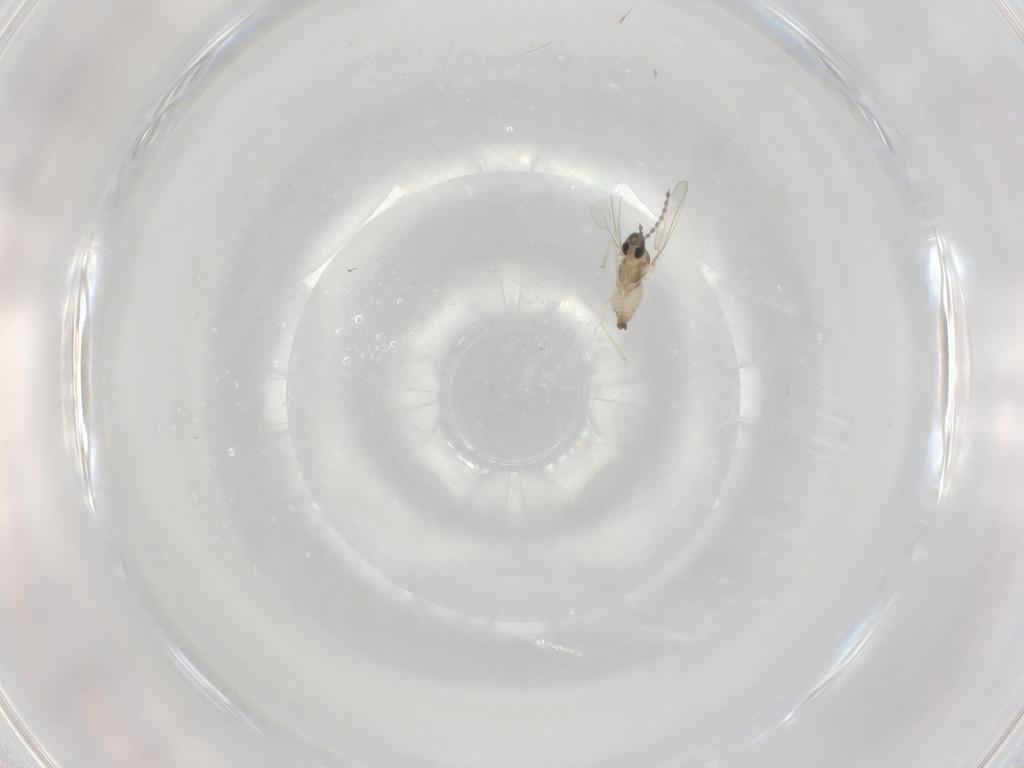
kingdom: Animalia
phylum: Arthropoda
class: Insecta
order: Diptera
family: Cecidomyiidae
